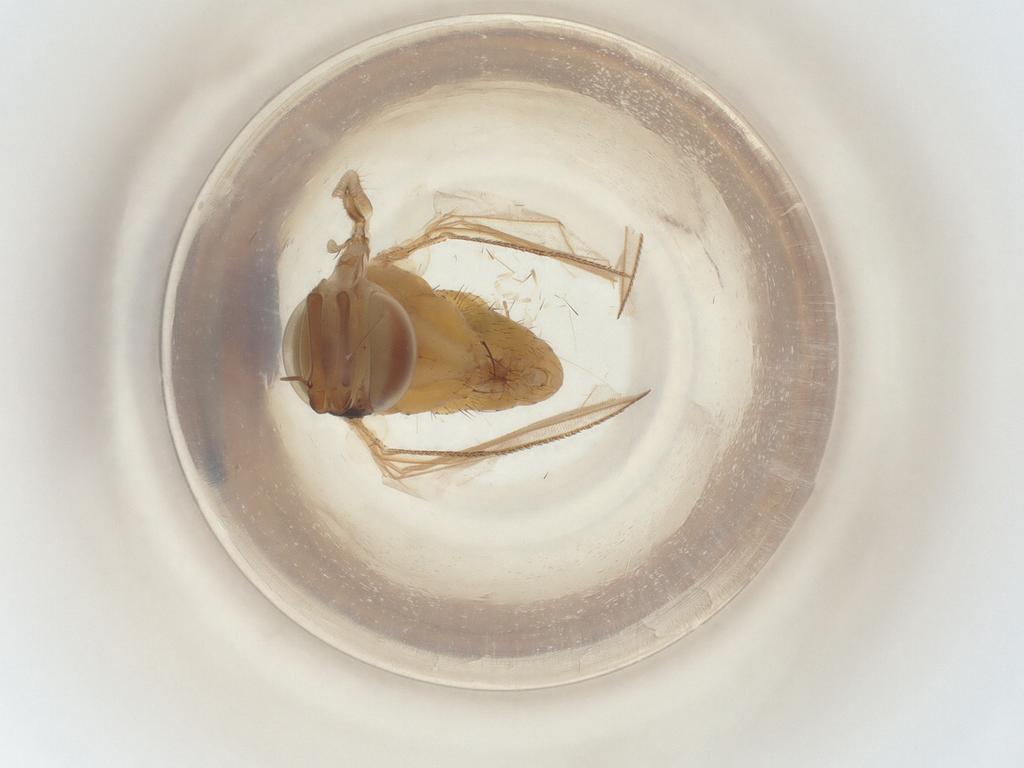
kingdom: Animalia
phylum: Arthropoda
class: Insecta
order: Diptera
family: Muscidae
